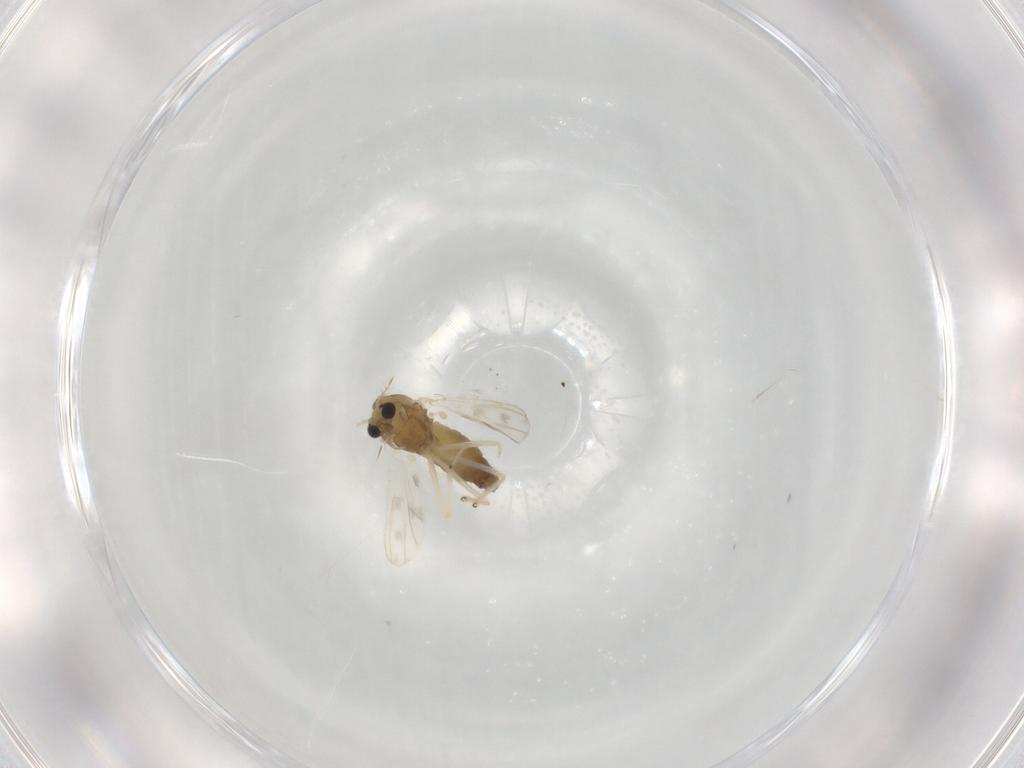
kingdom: Animalia
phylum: Arthropoda
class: Insecta
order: Diptera
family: Chironomidae
